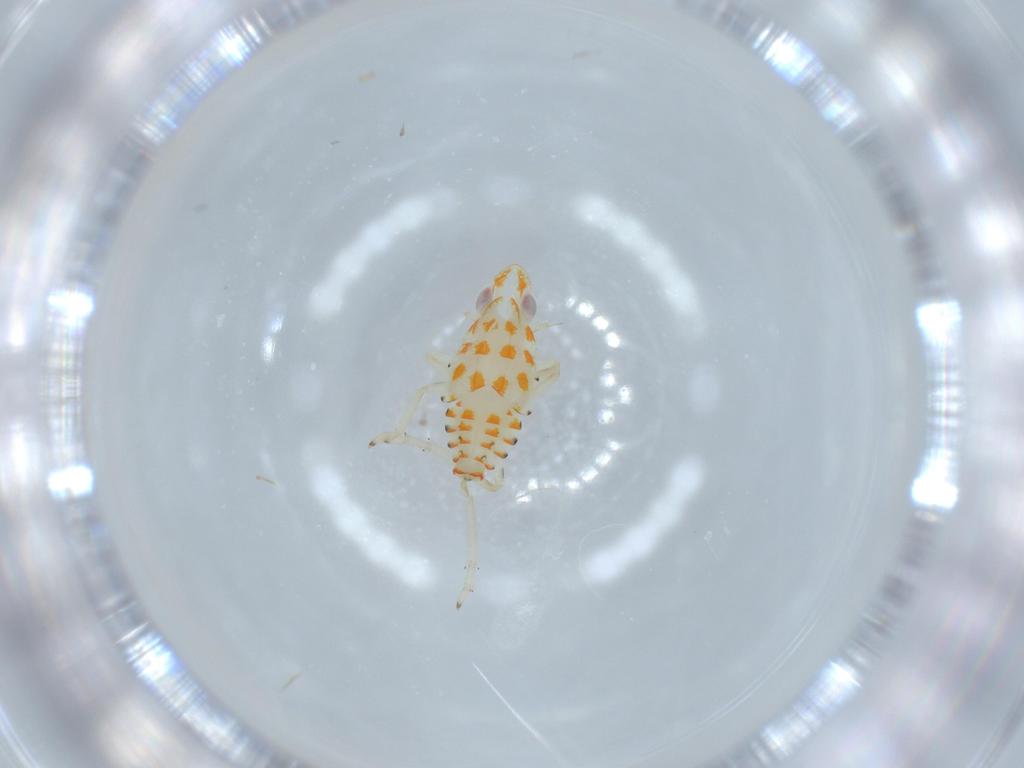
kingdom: Animalia
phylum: Arthropoda
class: Insecta
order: Hemiptera
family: Tropiduchidae
